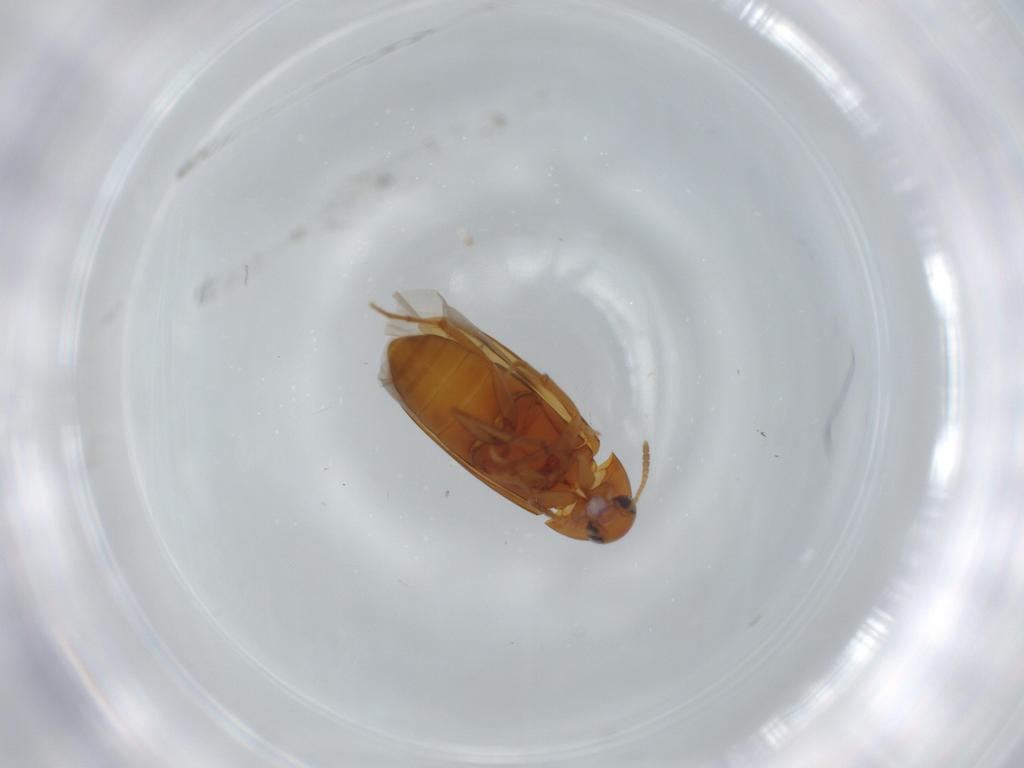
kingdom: Animalia
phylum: Arthropoda
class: Insecta
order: Coleoptera
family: Scraptiidae
